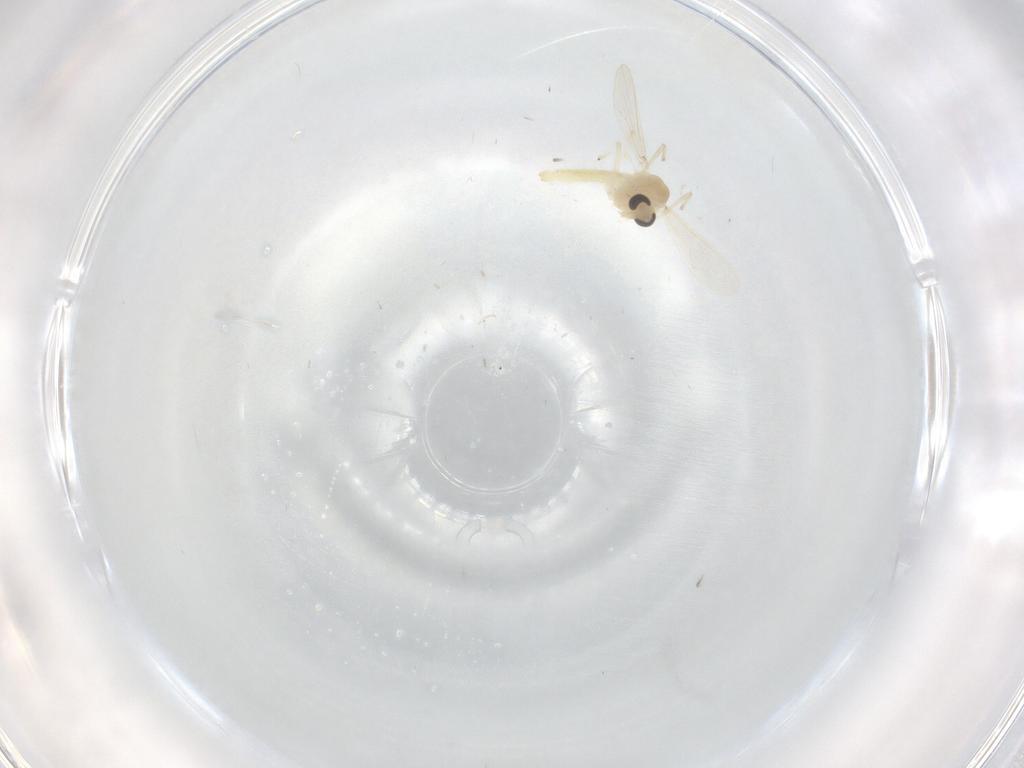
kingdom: Animalia
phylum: Arthropoda
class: Insecta
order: Diptera
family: Chironomidae
